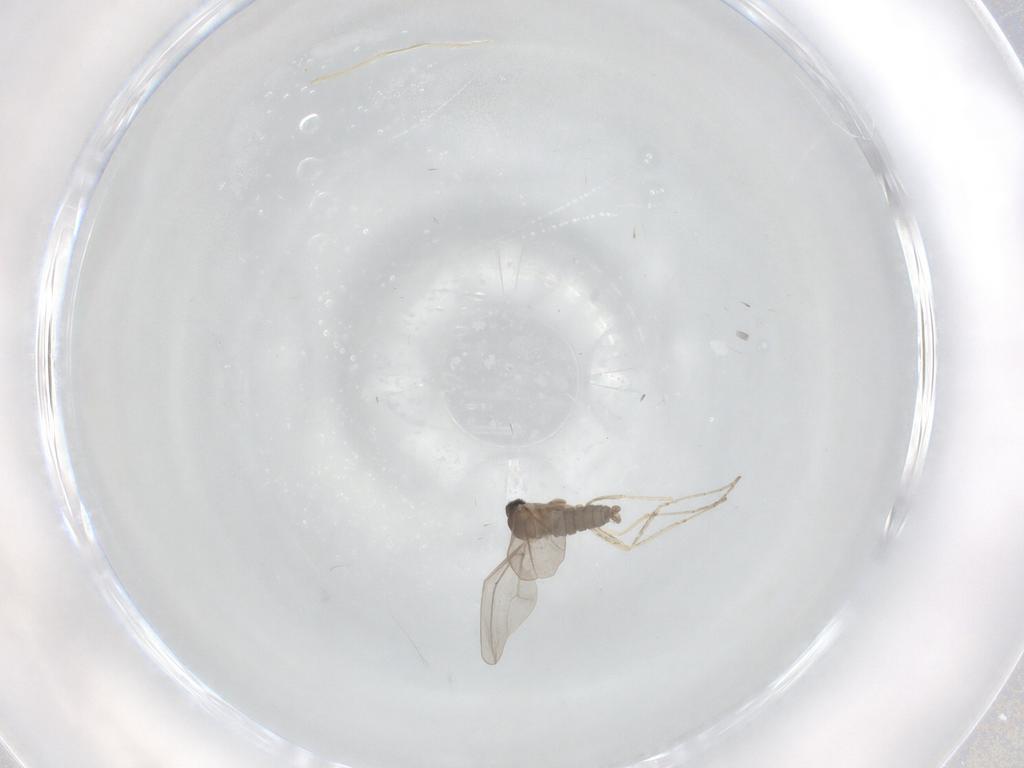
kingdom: Animalia
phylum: Arthropoda
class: Insecta
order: Diptera
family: Cecidomyiidae
